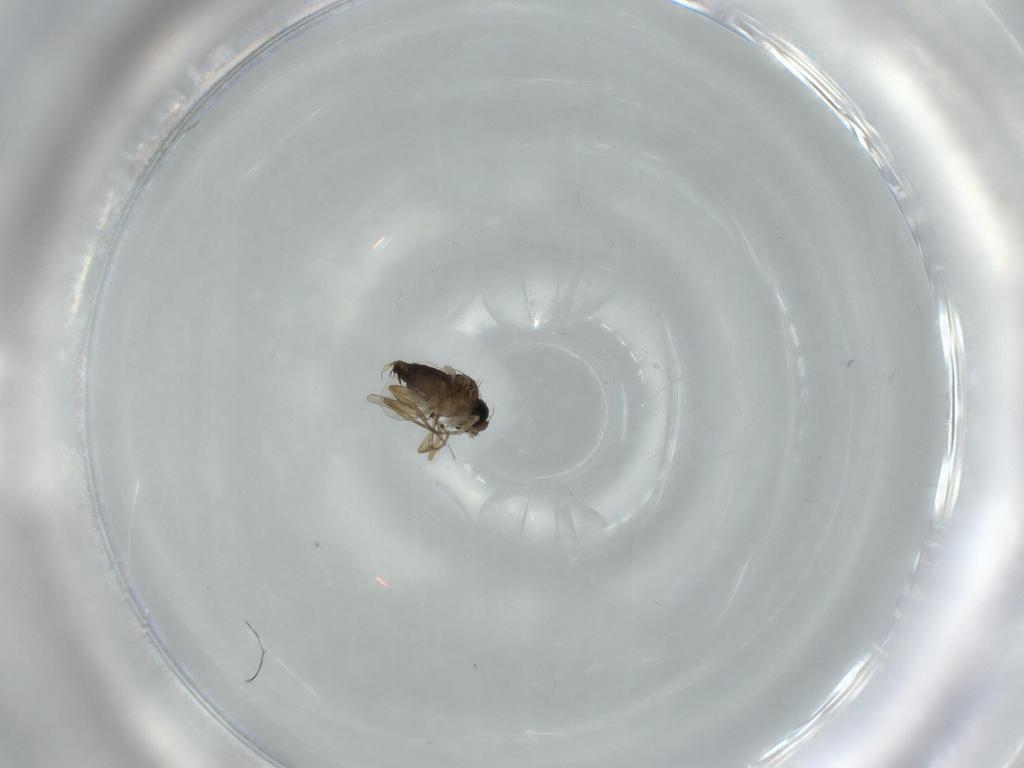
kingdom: Animalia
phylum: Arthropoda
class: Insecta
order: Diptera
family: Phoridae
